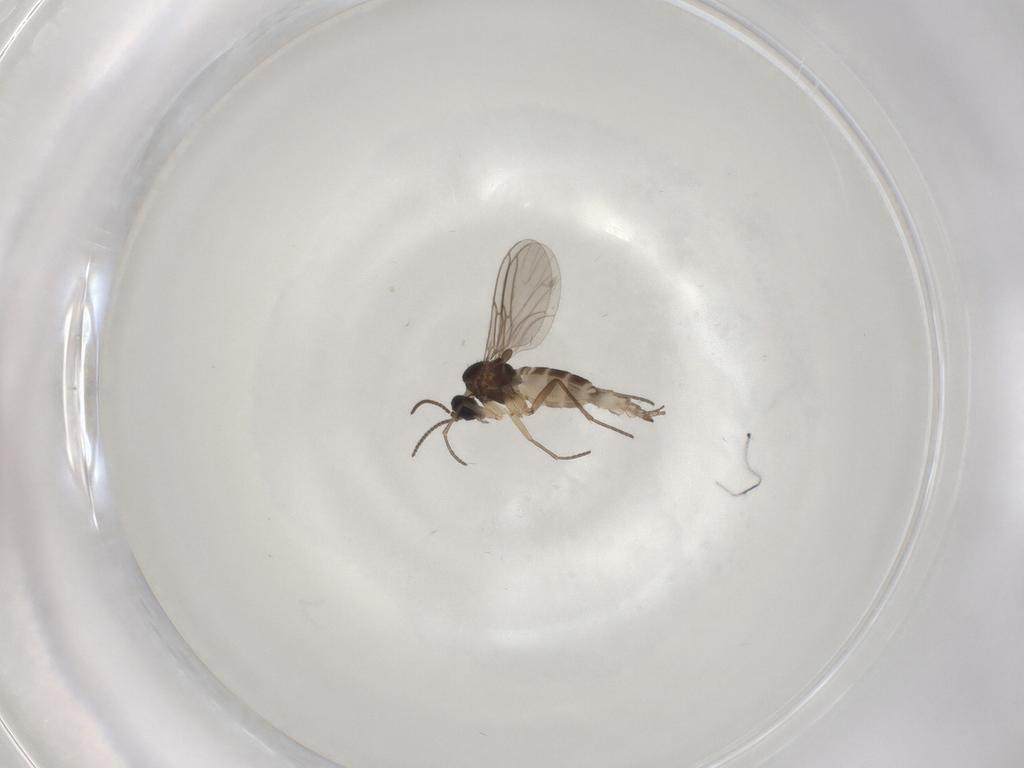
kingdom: Animalia
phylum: Arthropoda
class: Insecta
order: Diptera
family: Sciaridae
